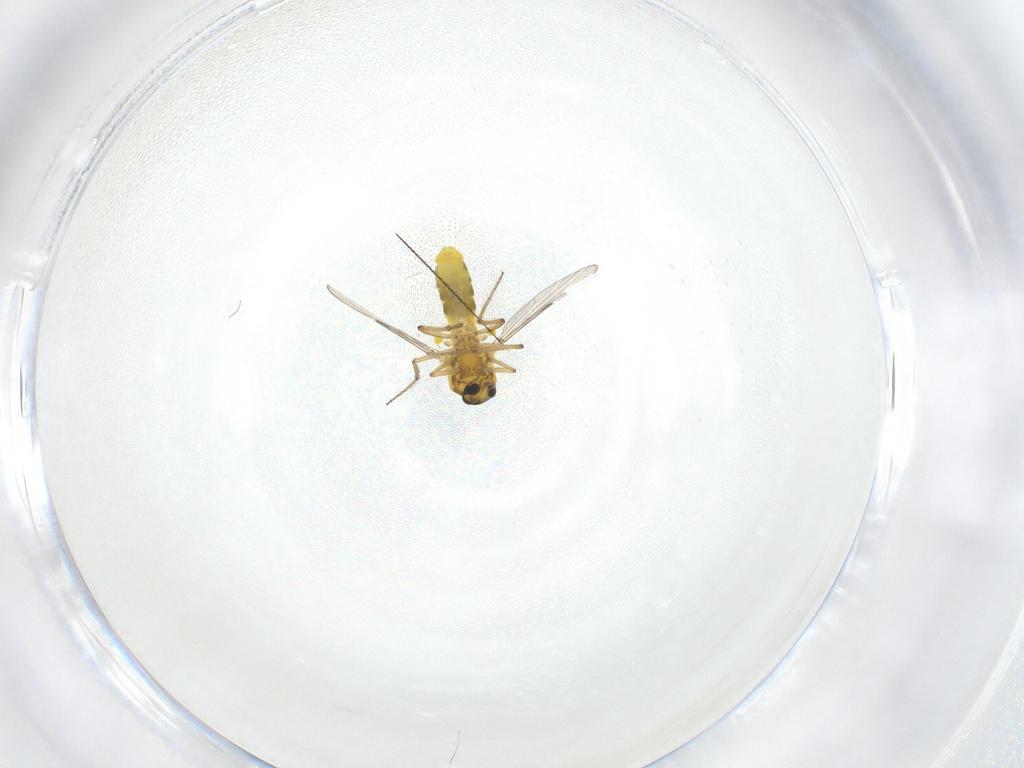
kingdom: Animalia
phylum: Arthropoda
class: Insecta
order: Diptera
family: Ceratopogonidae
